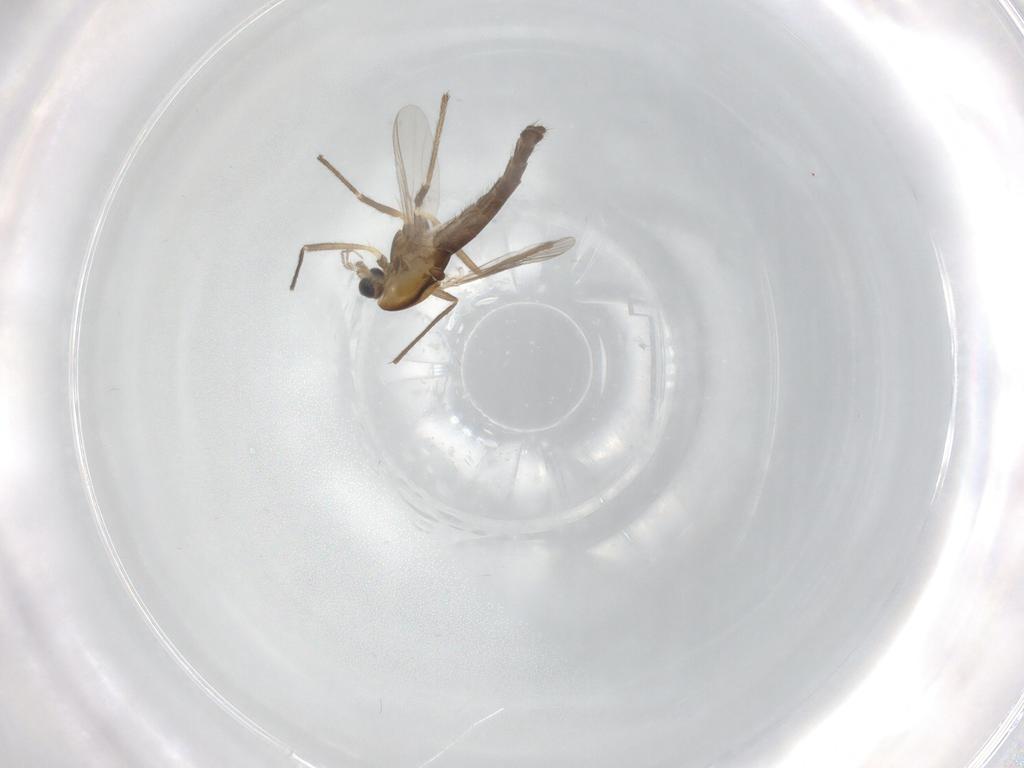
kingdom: Animalia
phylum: Arthropoda
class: Insecta
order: Diptera
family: Chironomidae
